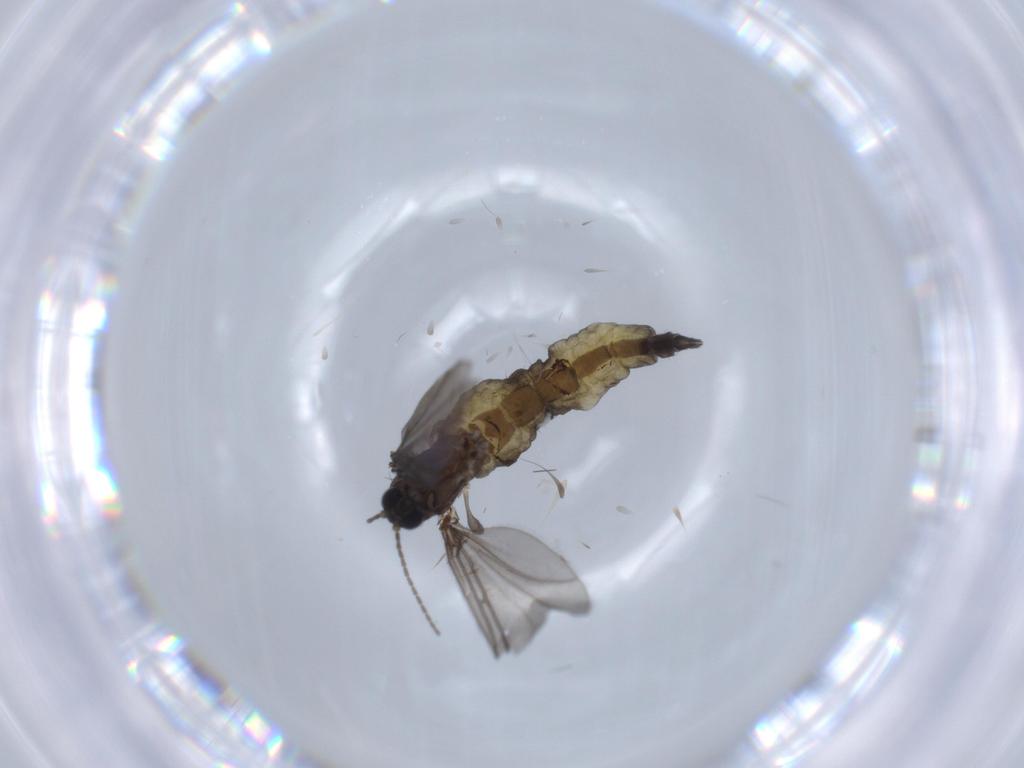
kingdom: Animalia
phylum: Arthropoda
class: Insecta
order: Diptera
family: Sciaridae
